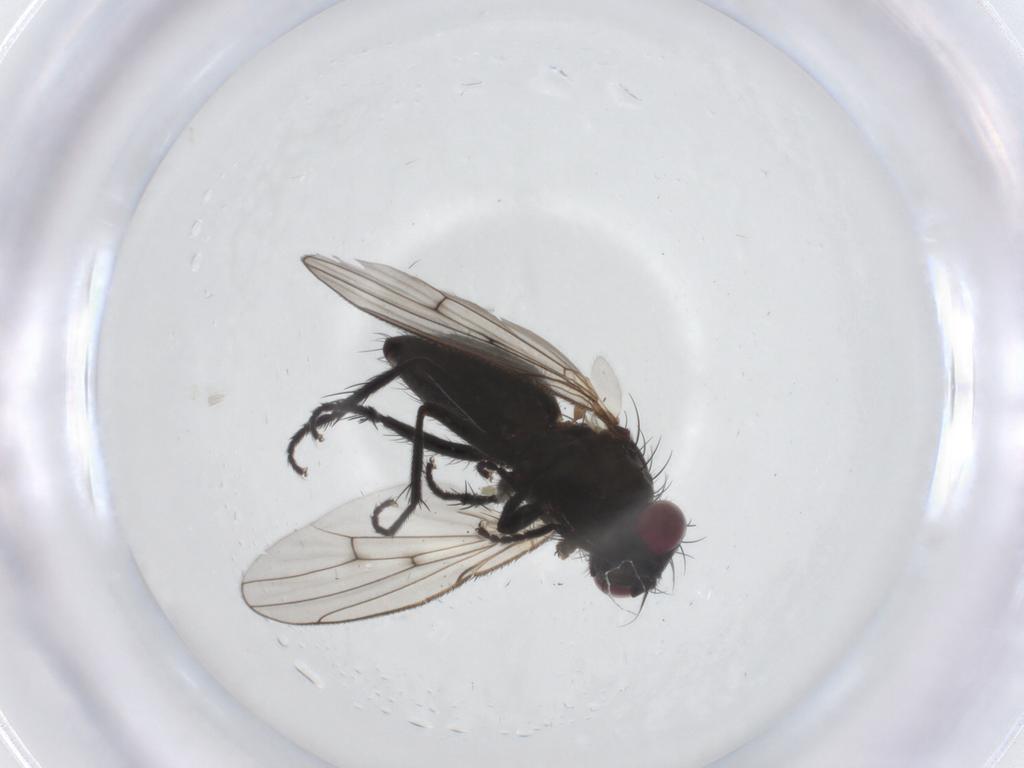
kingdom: Animalia
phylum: Arthropoda
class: Insecta
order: Diptera
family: Muscidae
